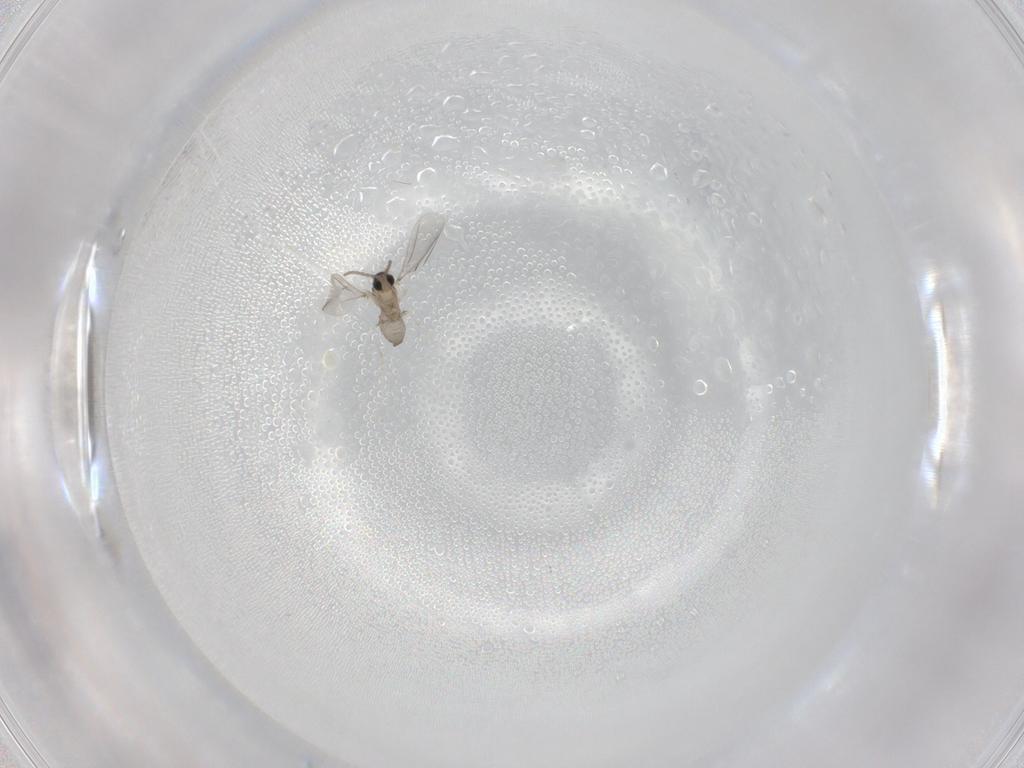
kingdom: Animalia
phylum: Arthropoda
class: Insecta
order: Diptera
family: Cecidomyiidae
